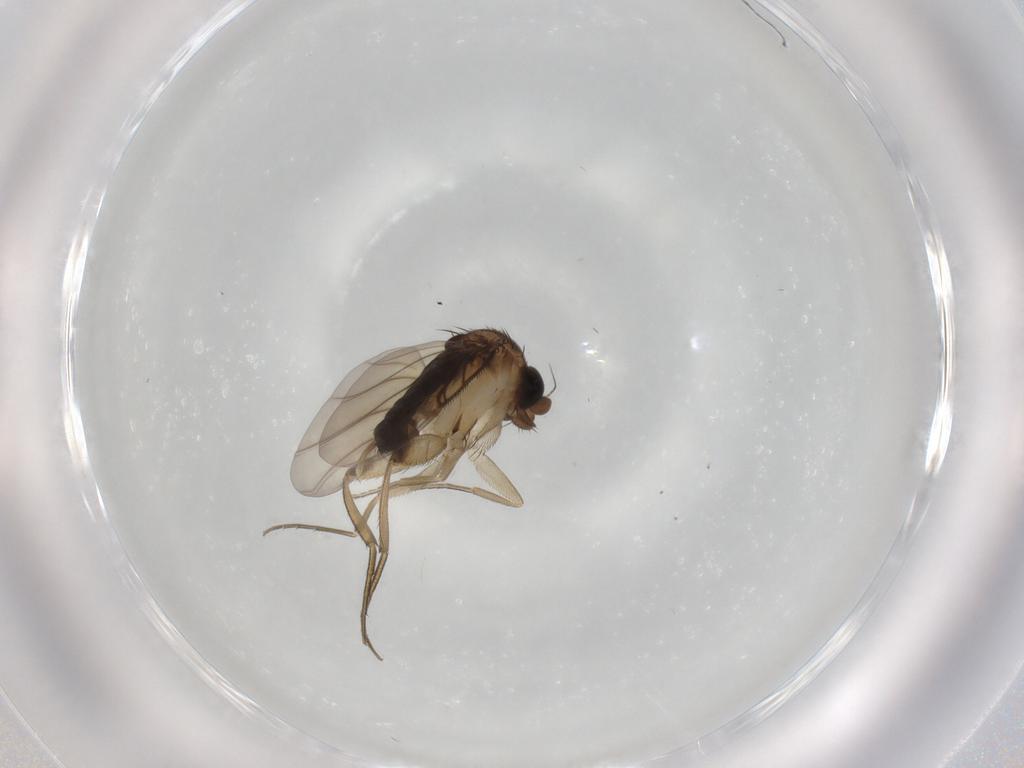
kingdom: Animalia
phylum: Arthropoda
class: Insecta
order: Diptera
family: Phoridae
